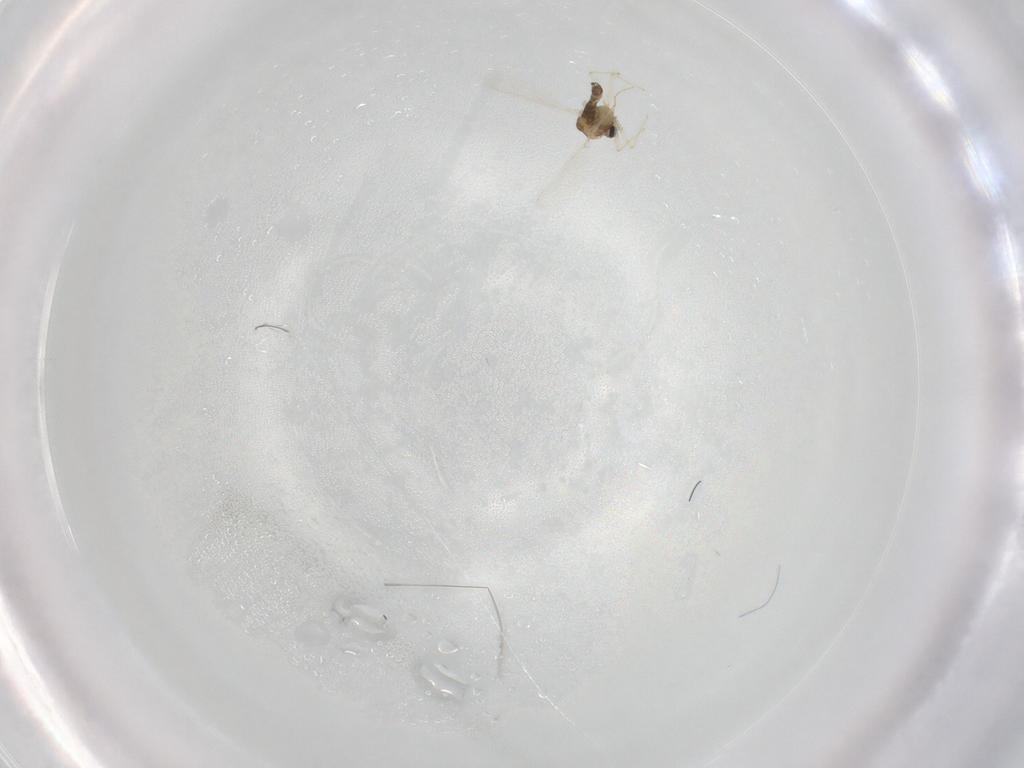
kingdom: Animalia
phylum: Arthropoda
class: Insecta
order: Diptera
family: Chironomidae
